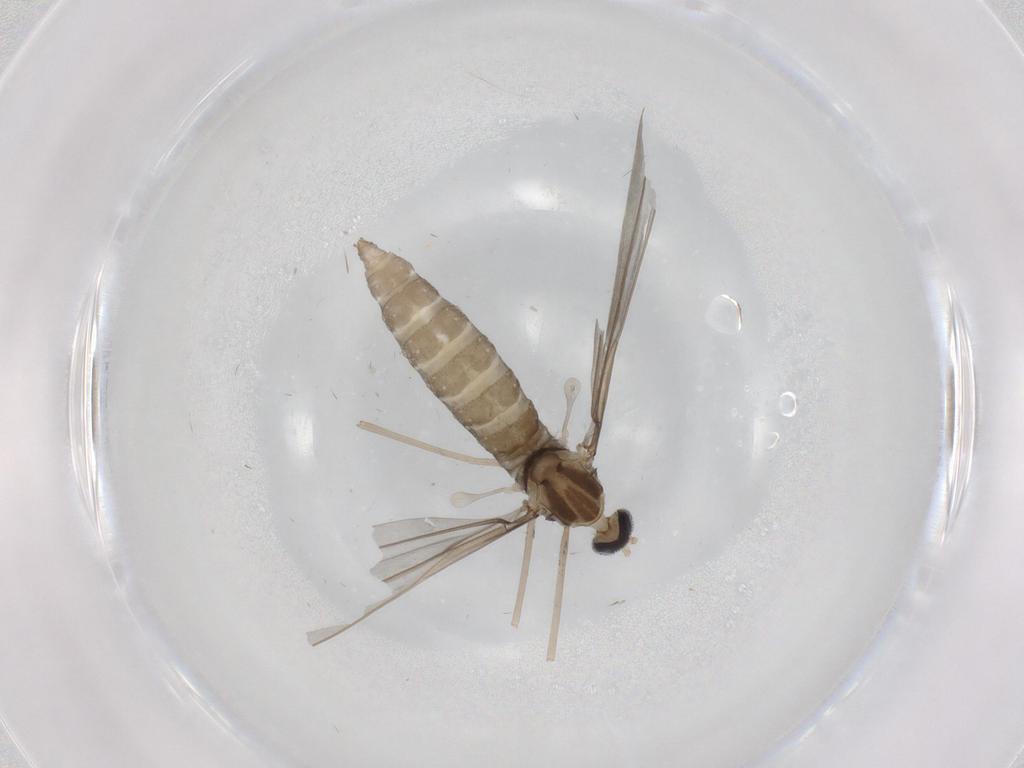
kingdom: Animalia
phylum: Arthropoda
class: Insecta
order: Diptera
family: Cecidomyiidae
